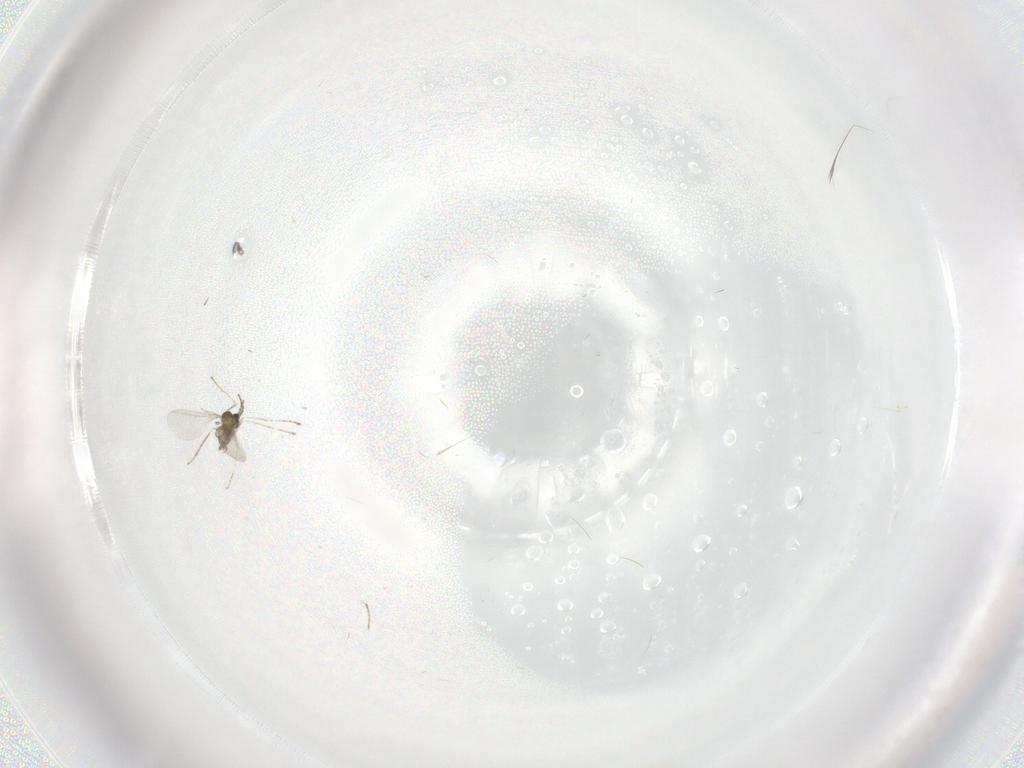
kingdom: Animalia
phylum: Arthropoda
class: Insecta
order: Diptera
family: Cecidomyiidae
